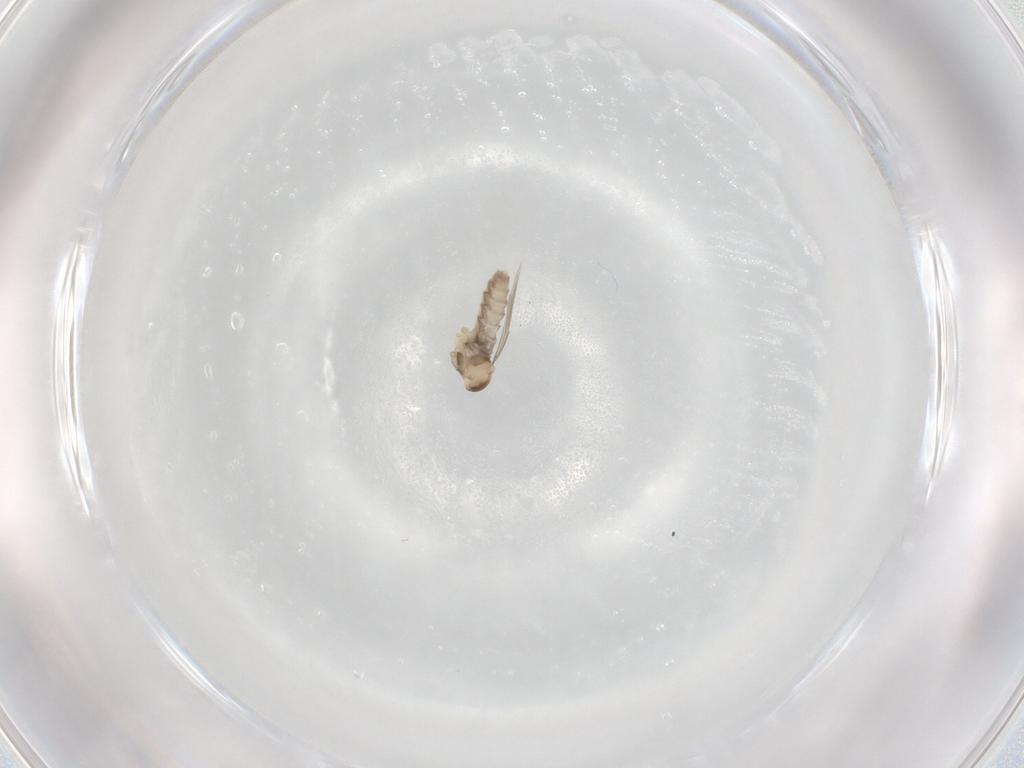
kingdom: Animalia
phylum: Arthropoda
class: Insecta
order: Diptera
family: Cecidomyiidae
